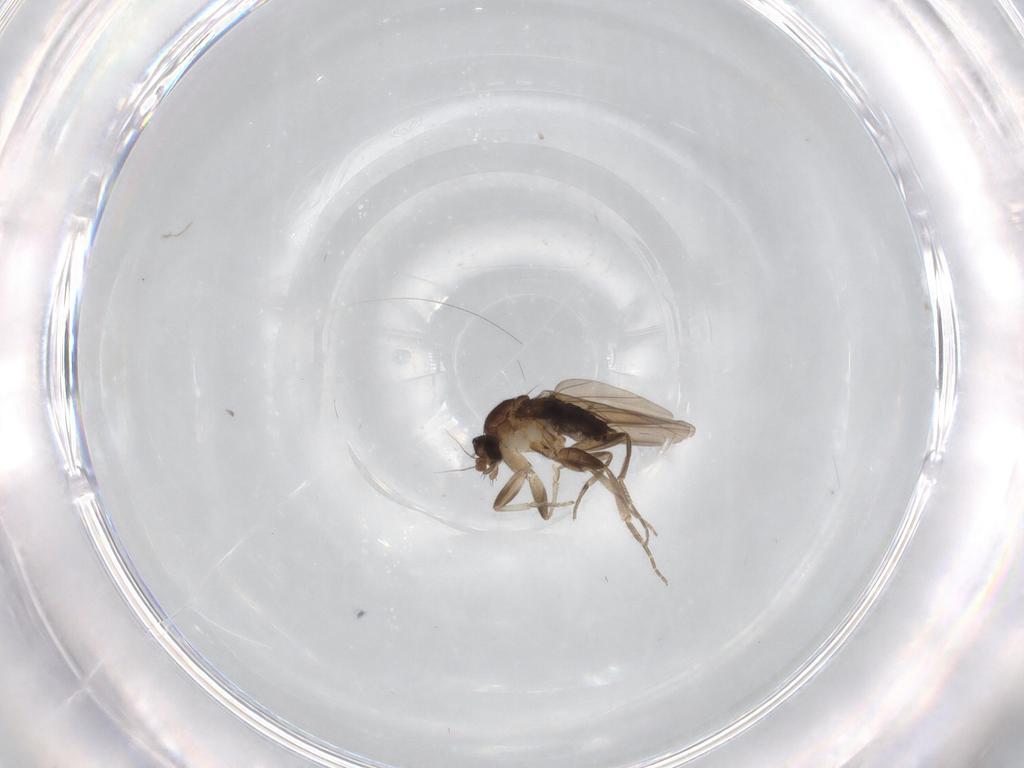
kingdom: Animalia
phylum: Arthropoda
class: Insecta
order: Diptera
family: Phoridae
